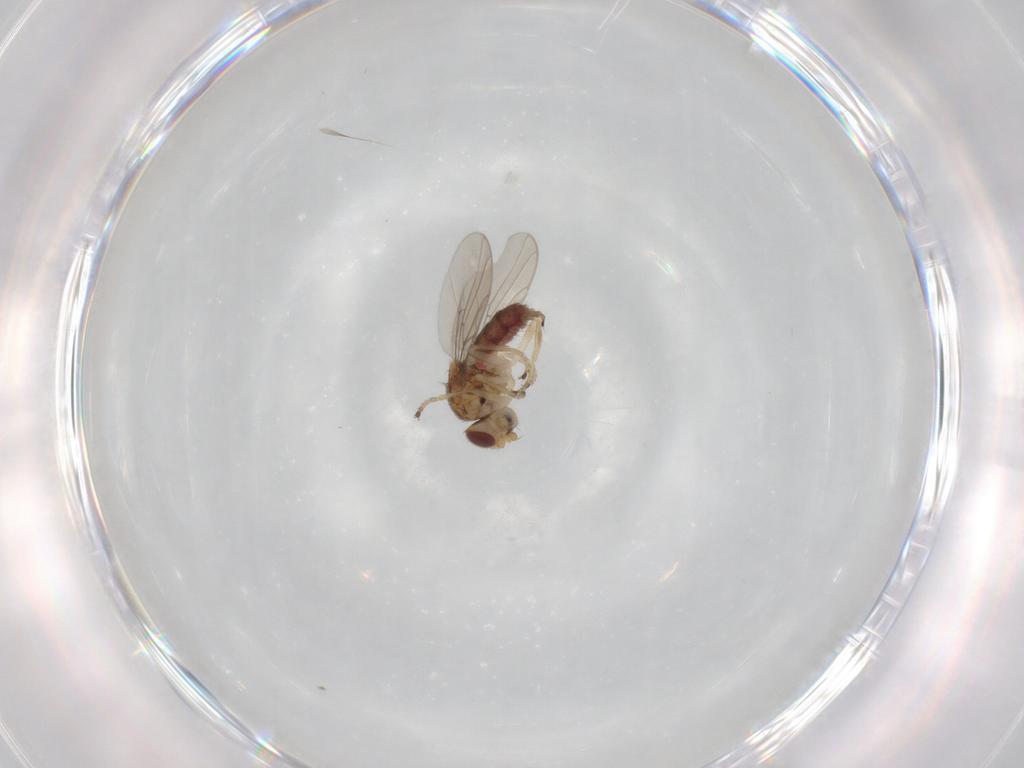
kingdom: Animalia
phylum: Arthropoda
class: Insecta
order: Diptera
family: Chloropidae
